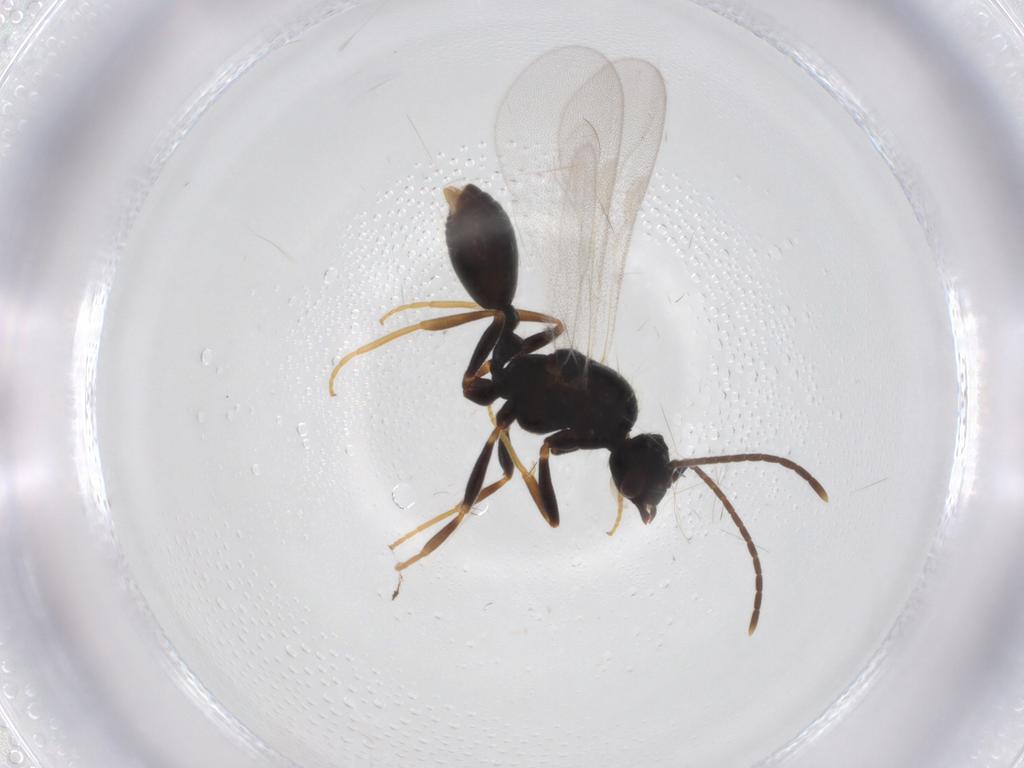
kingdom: Animalia
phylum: Arthropoda
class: Insecta
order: Hymenoptera
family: Formicidae
